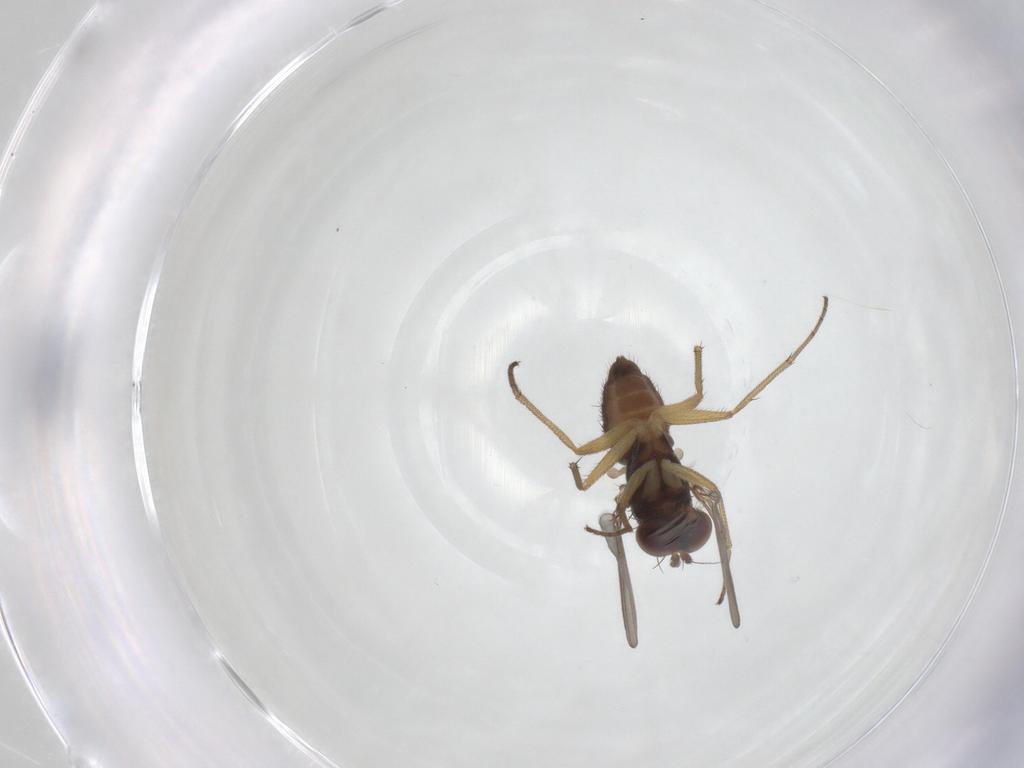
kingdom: Animalia
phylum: Arthropoda
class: Insecta
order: Diptera
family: Dolichopodidae
